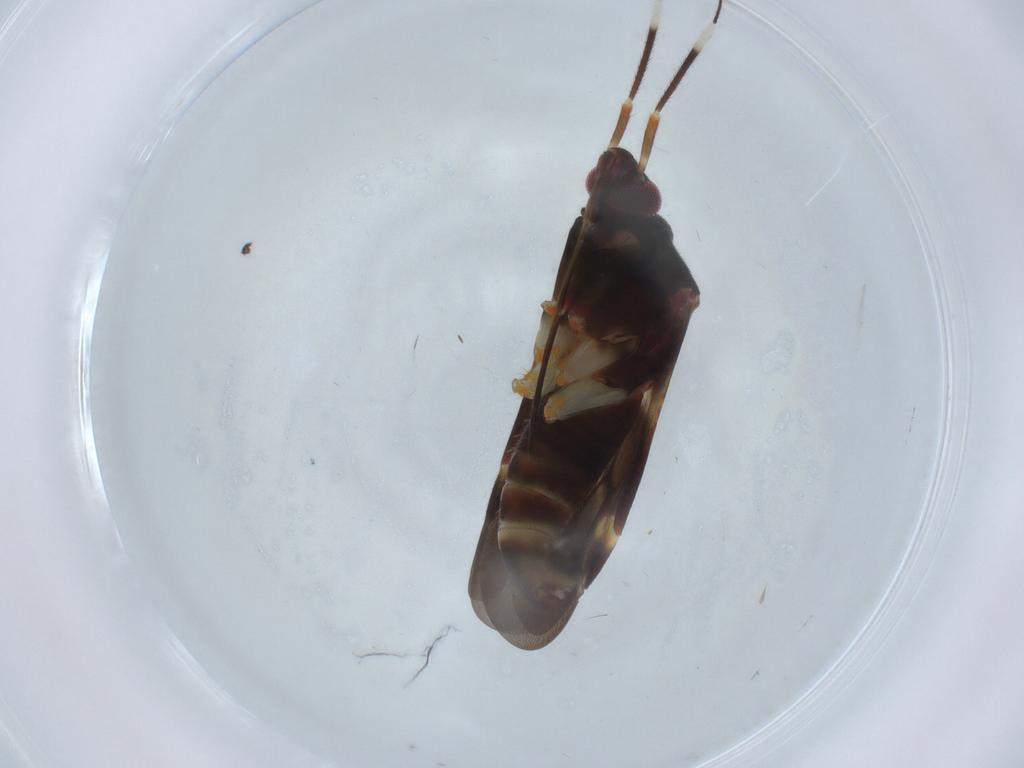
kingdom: Animalia
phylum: Arthropoda
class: Insecta
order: Hemiptera
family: Miridae
